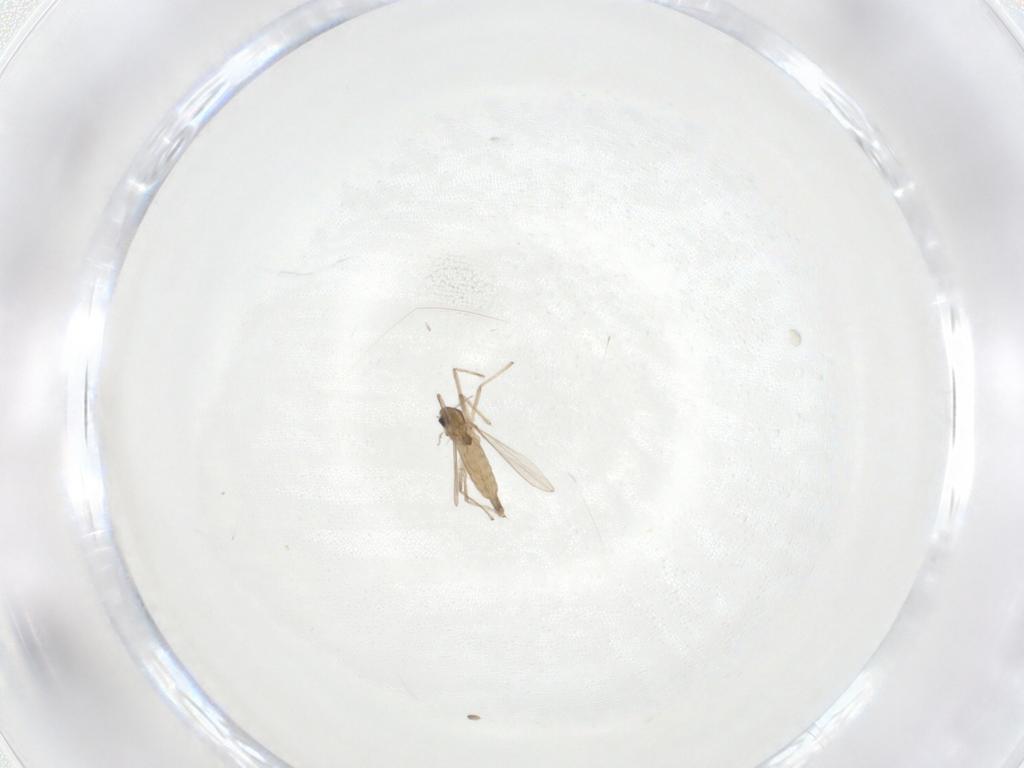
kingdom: Animalia
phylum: Arthropoda
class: Insecta
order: Diptera
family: Chironomidae
